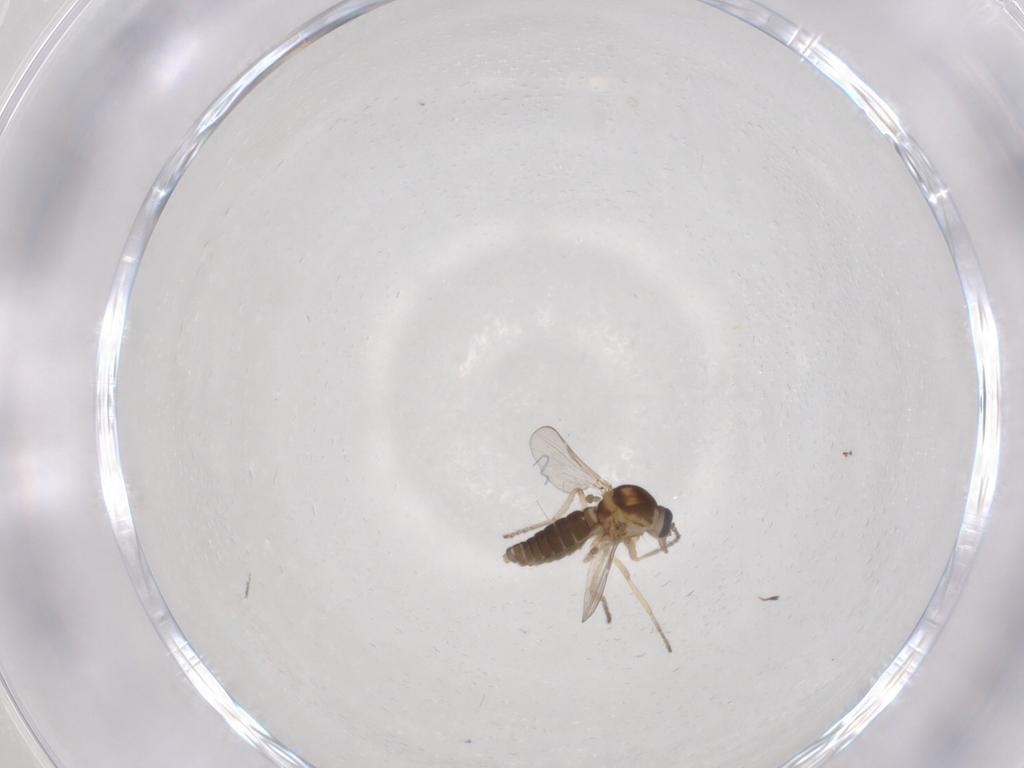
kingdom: Animalia
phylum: Arthropoda
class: Insecta
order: Diptera
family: Ceratopogonidae
